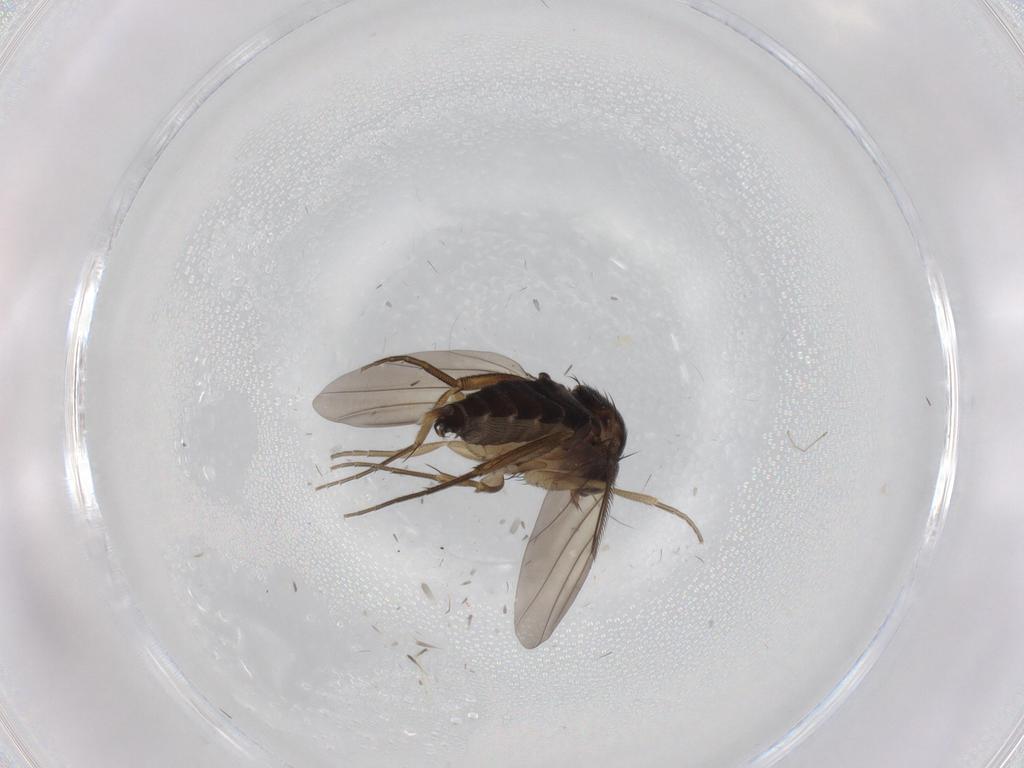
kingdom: Animalia
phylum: Arthropoda
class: Insecta
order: Diptera
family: Phoridae
